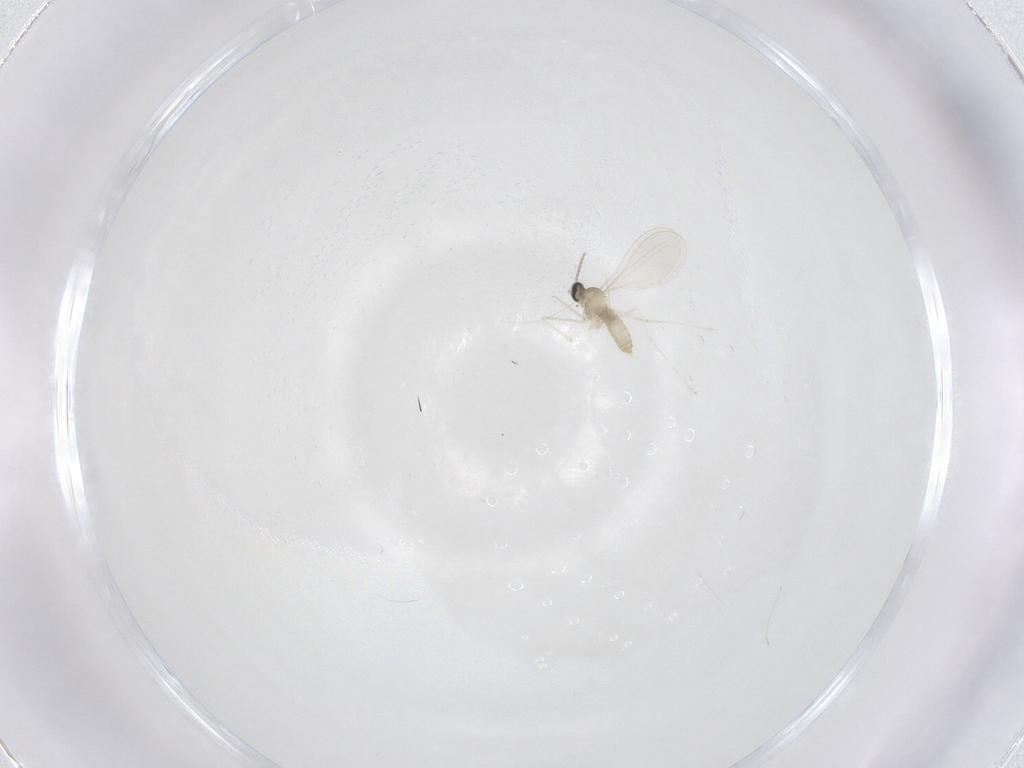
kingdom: Animalia
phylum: Arthropoda
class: Insecta
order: Diptera
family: Cecidomyiidae
